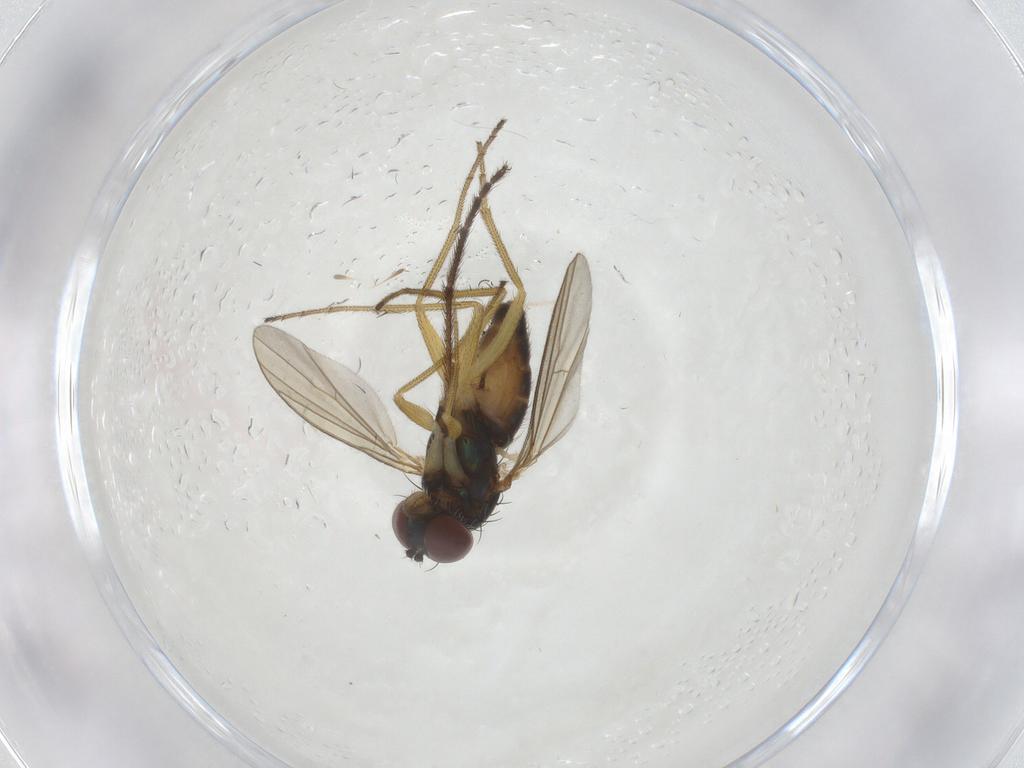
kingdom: Animalia
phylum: Arthropoda
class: Insecta
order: Diptera
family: Dolichopodidae
